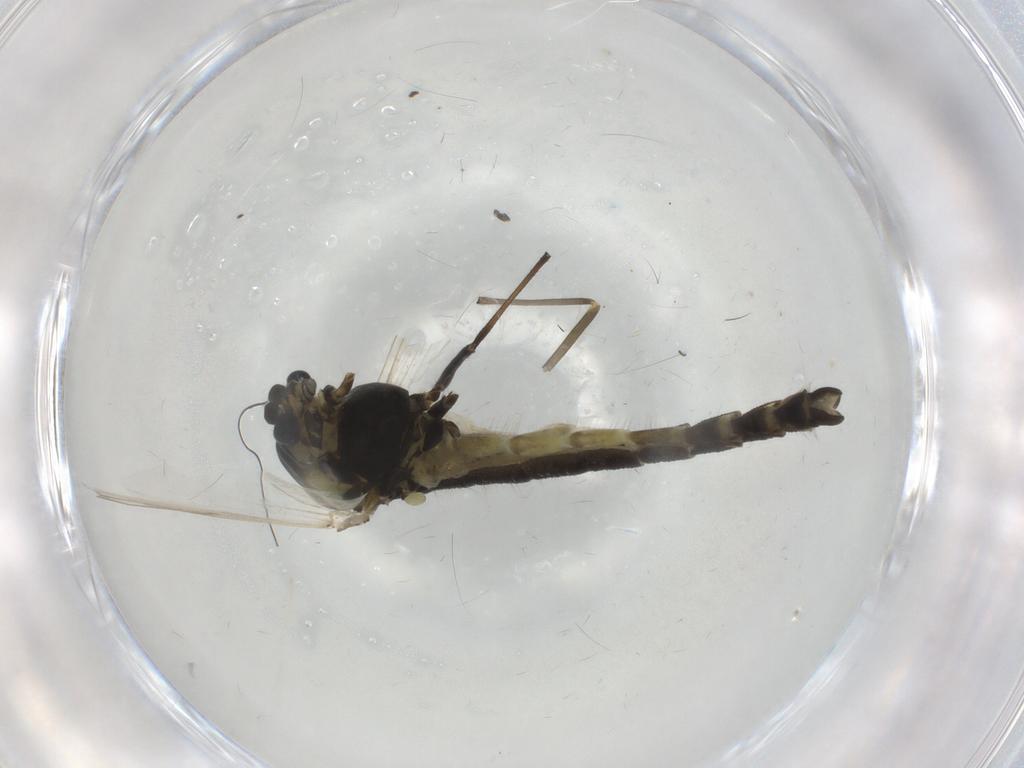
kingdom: Animalia
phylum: Arthropoda
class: Insecta
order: Diptera
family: Cecidomyiidae
